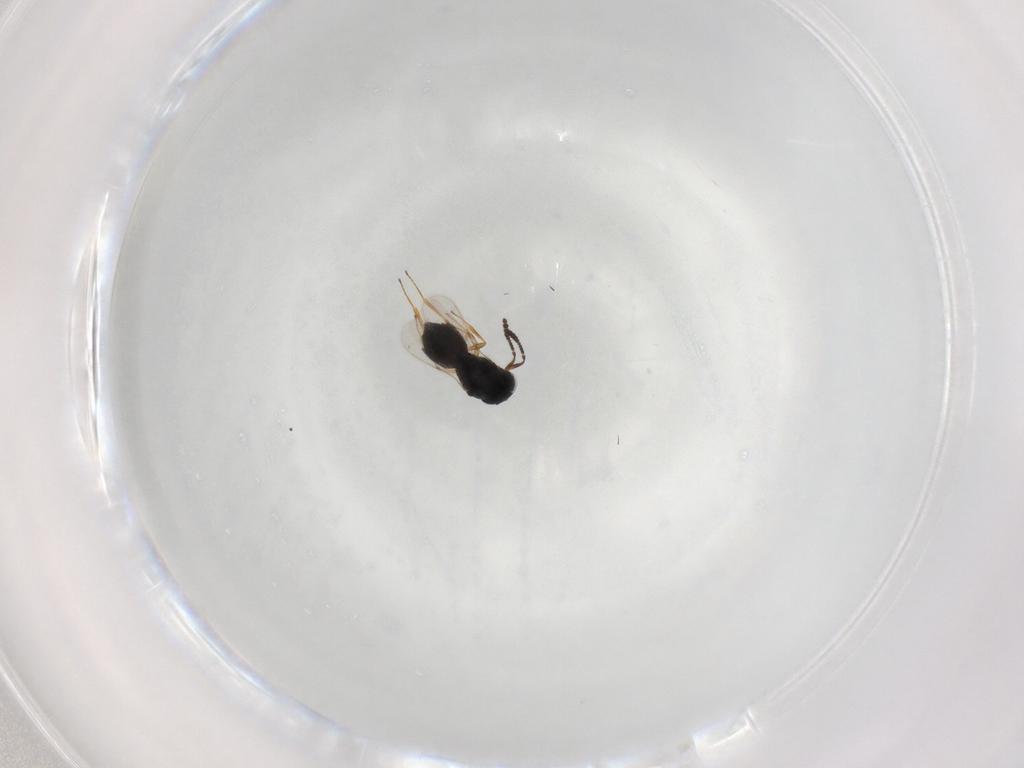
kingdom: Animalia
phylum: Arthropoda
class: Insecta
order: Hymenoptera
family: Scelionidae
